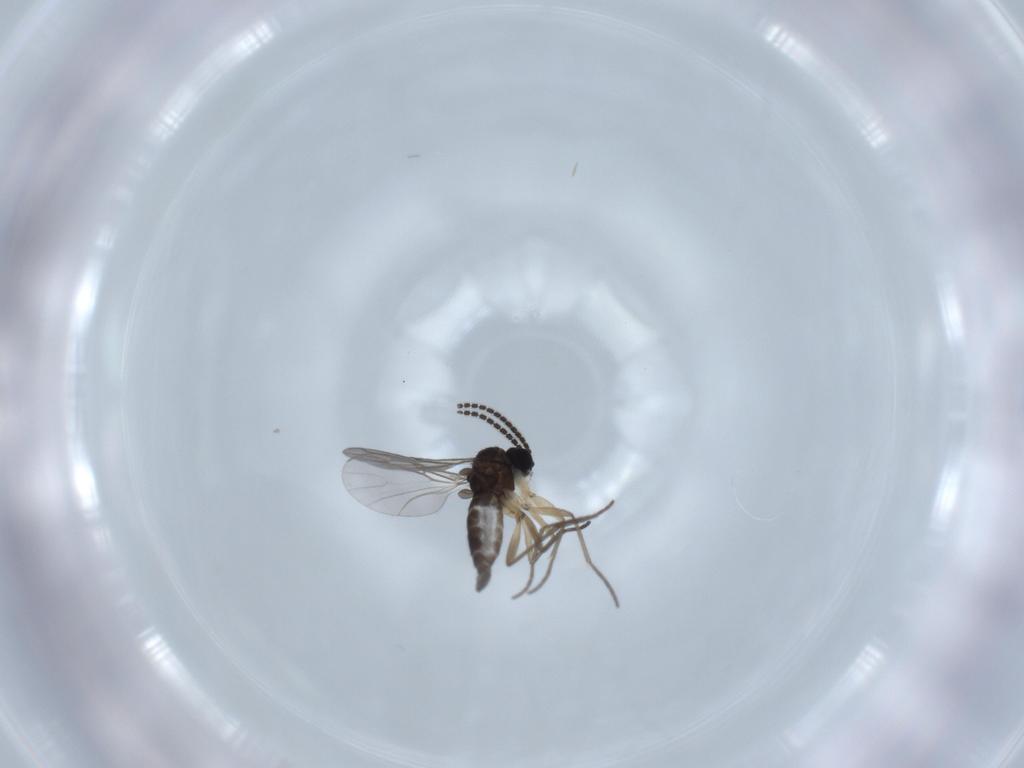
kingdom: Animalia
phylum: Arthropoda
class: Insecta
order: Diptera
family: Sciaridae
